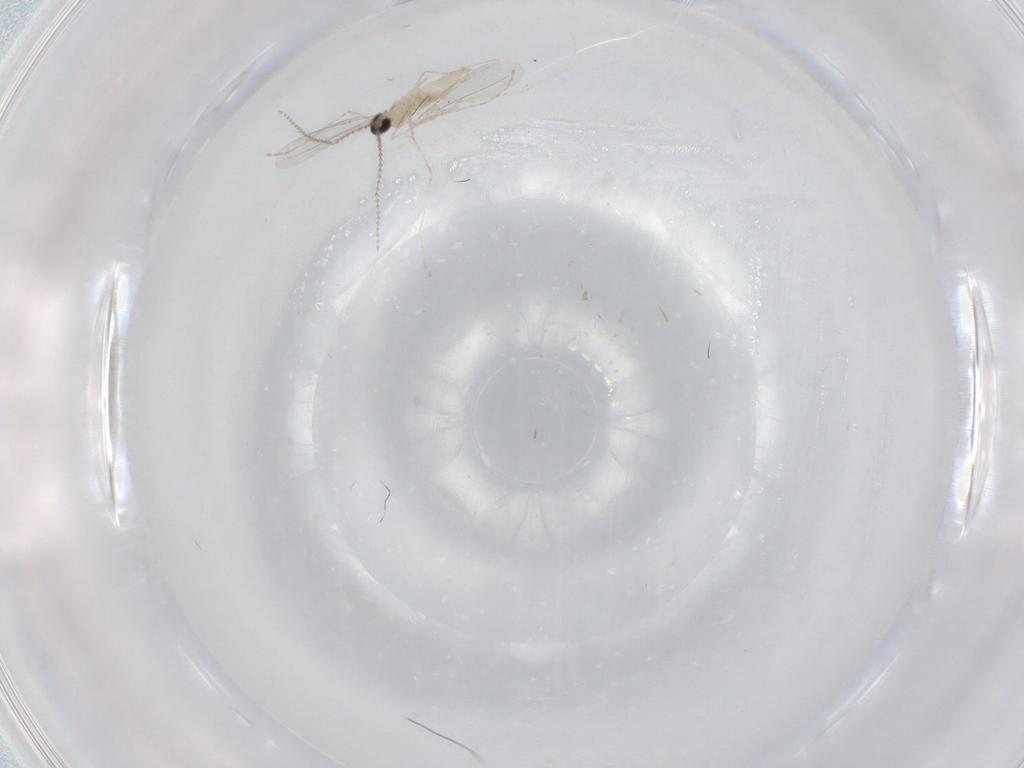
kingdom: Animalia
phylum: Arthropoda
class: Insecta
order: Diptera
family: Cecidomyiidae
